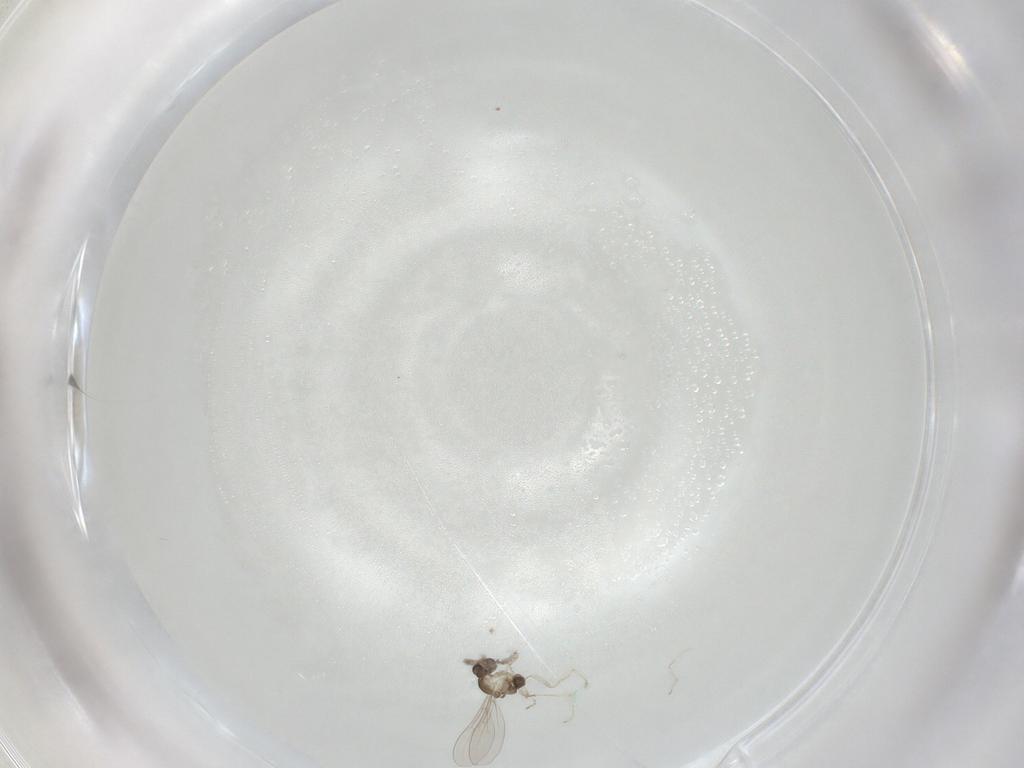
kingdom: Animalia
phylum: Arthropoda
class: Insecta
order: Diptera
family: Cecidomyiidae
